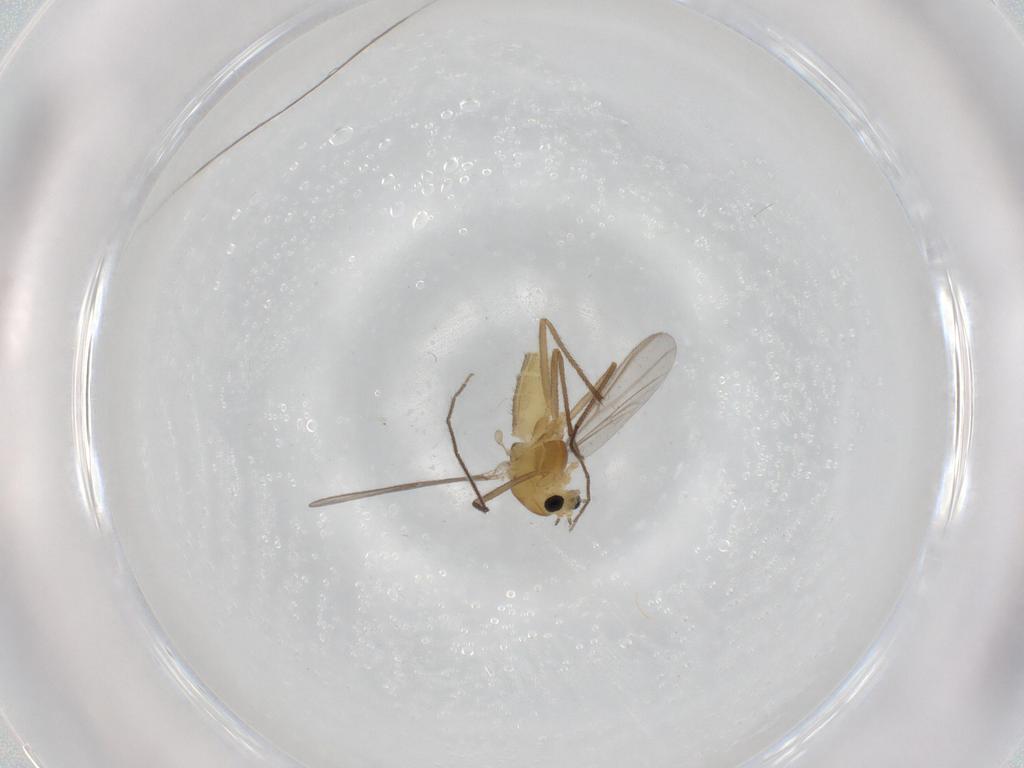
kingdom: Animalia
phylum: Arthropoda
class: Insecta
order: Diptera
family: Chironomidae
